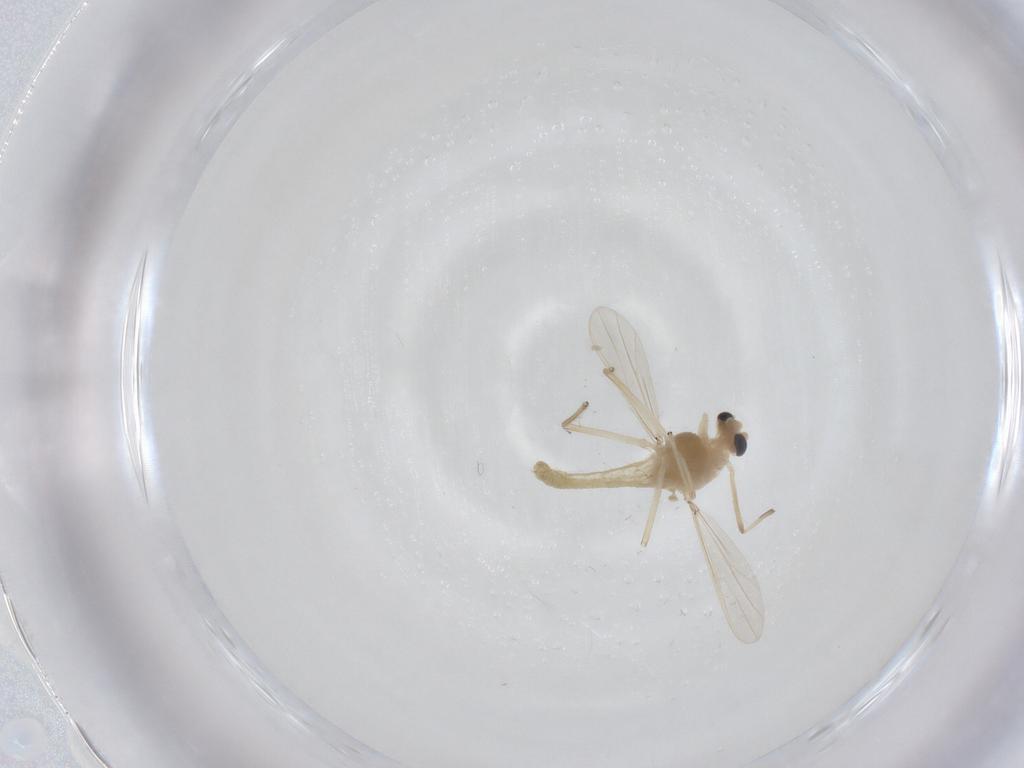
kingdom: Animalia
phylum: Arthropoda
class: Insecta
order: Diptera
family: Chironomidae
